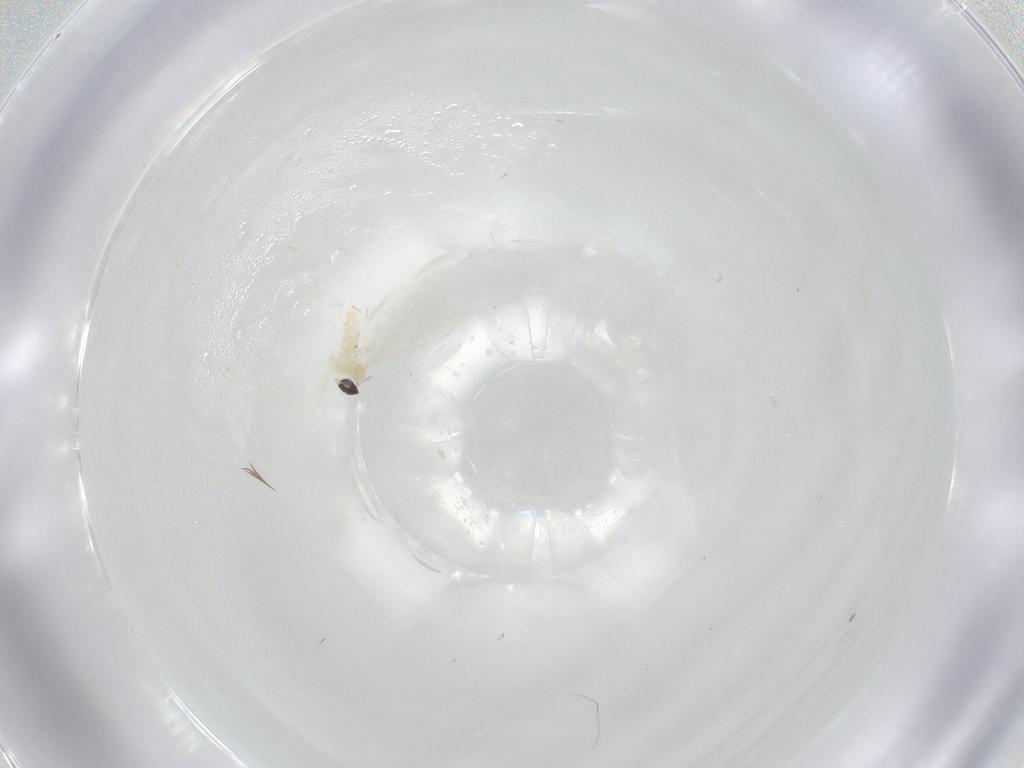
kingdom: Animalia
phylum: Arthropoda
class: Insecta
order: Diptera
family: Cecidomyiidae
